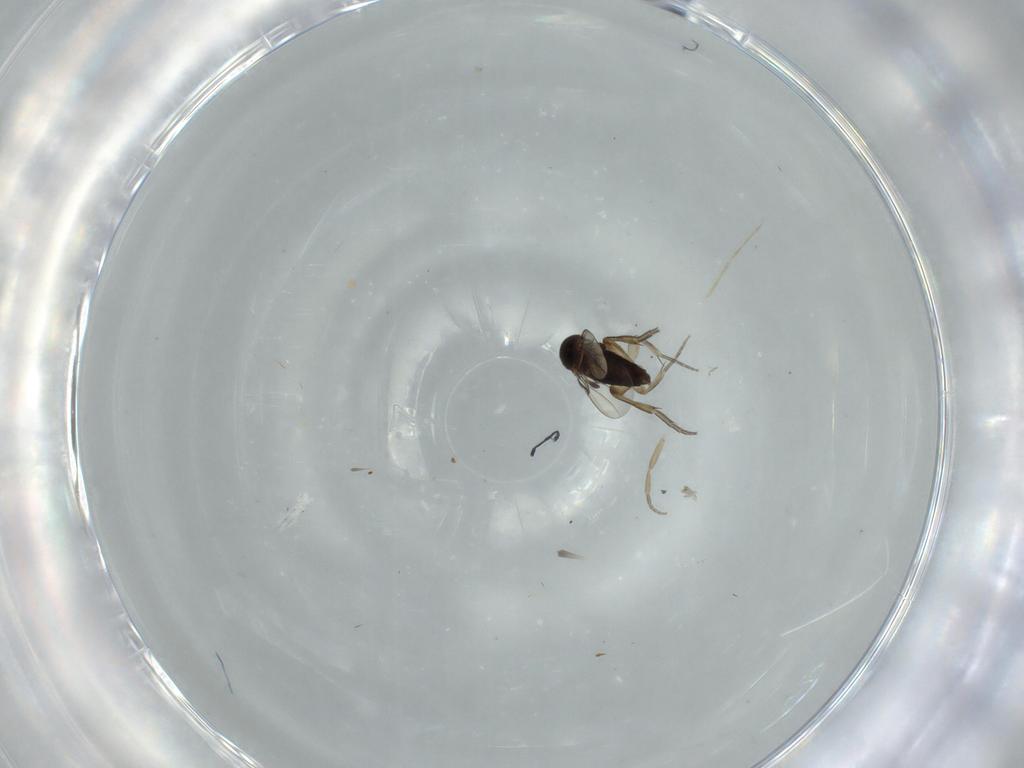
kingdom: Animalia
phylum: Arthropoda
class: Insecta
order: Diptera
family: Phoridae
